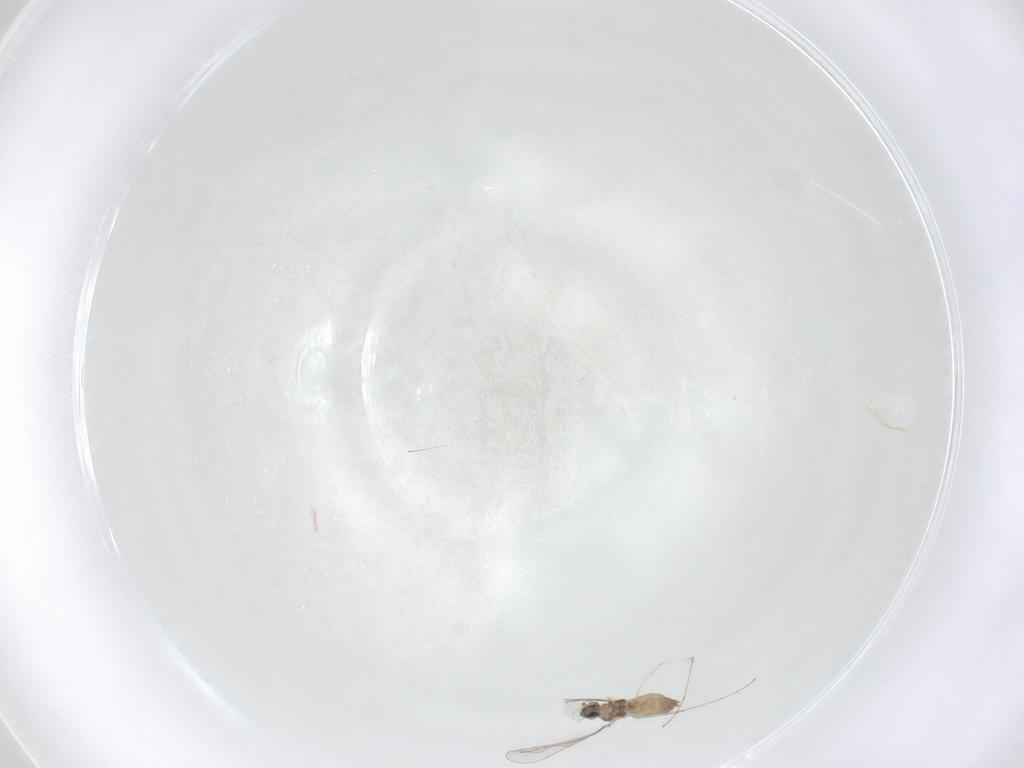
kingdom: Animalia
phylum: Arthropoda
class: Insecta
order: Diptera
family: Cecidomyiidae
